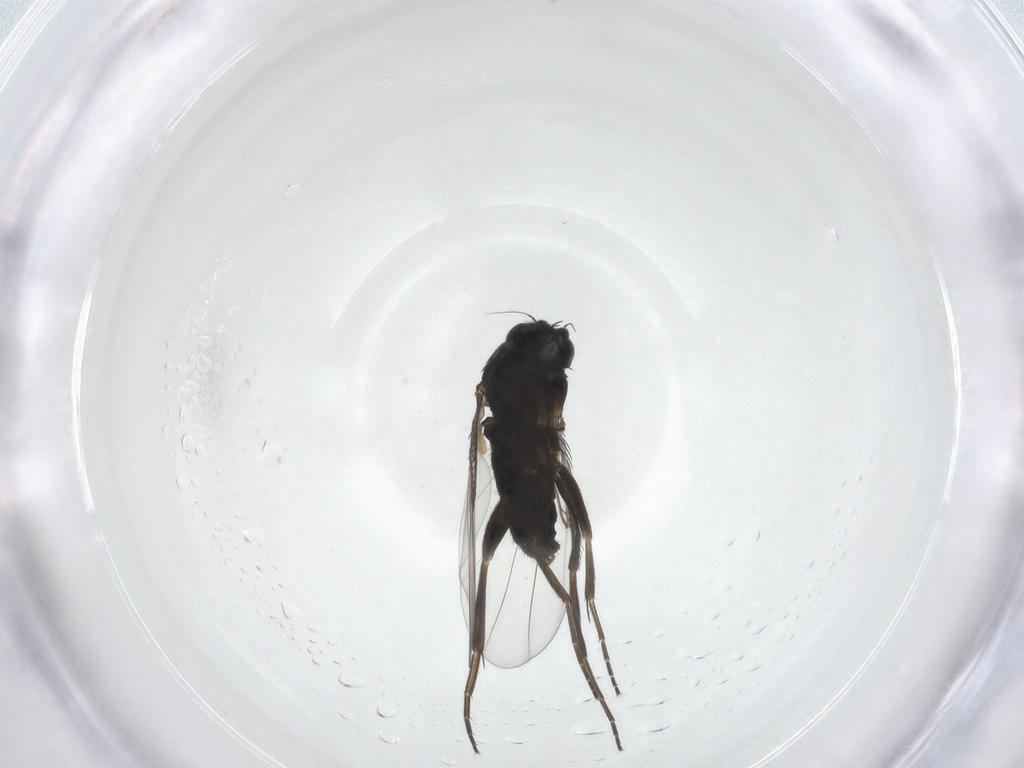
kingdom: Animalia
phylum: Arthropoda
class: Insecta
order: Diptera
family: Phoridae
